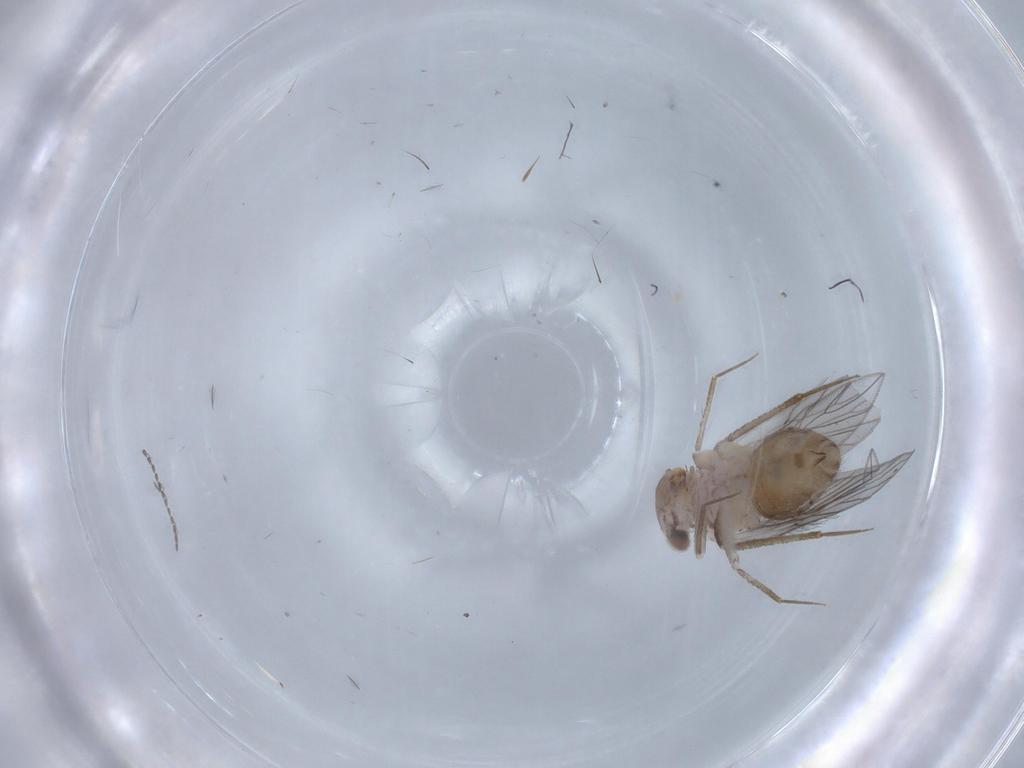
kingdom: Animalia
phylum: Arthropoda
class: Insecta
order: Psocodea
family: Lepidopsocidae
